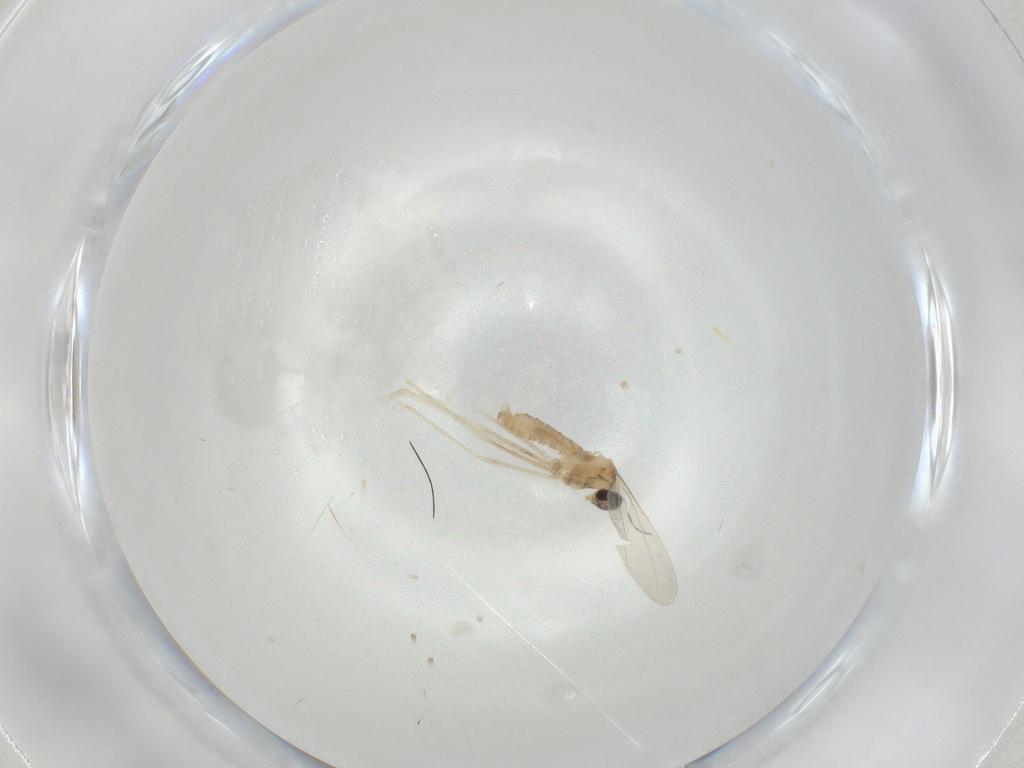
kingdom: Animalia
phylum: Arthropoda
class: Insecta
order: Diptera
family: Cecidomyiidae
